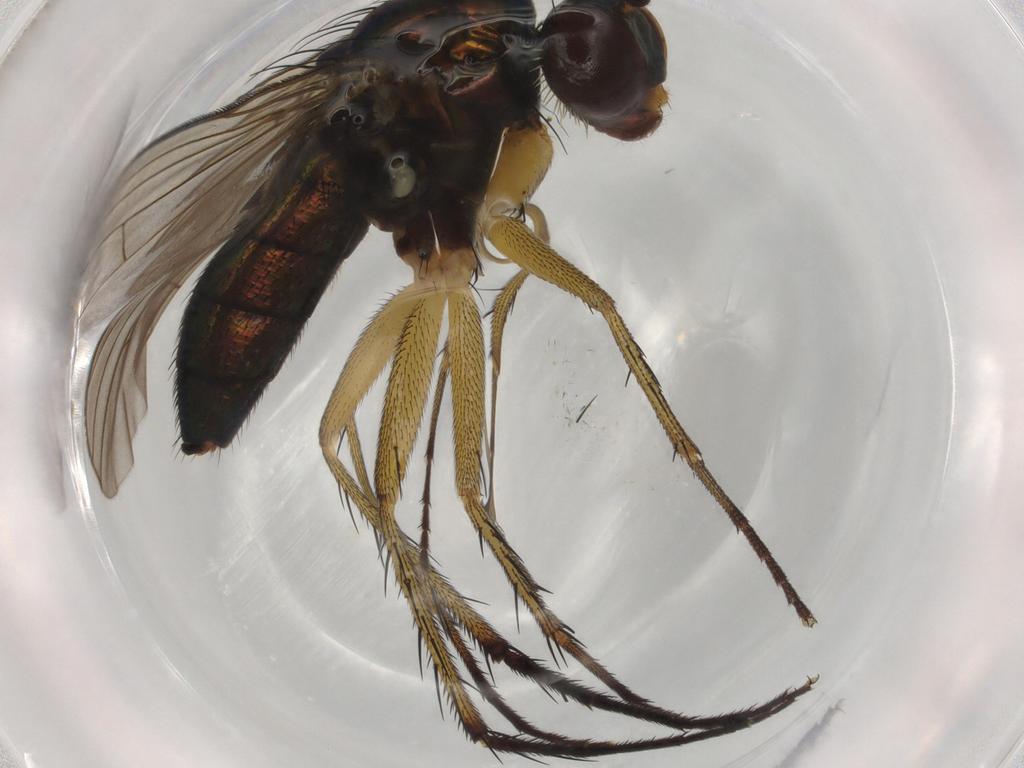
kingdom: Animalia
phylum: Arthropoda
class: Insecta
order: Diptera
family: Dolichopodidae
